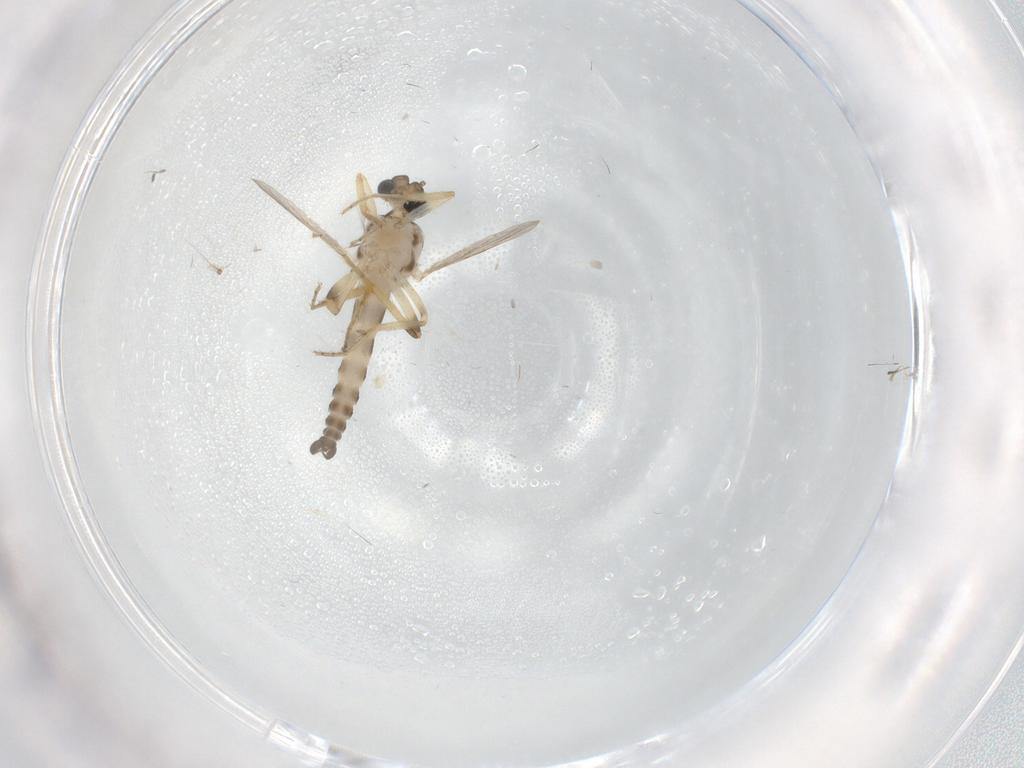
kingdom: Animalia
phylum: Arthropoda
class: Insecta
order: Diptera
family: Ceratopogonidae
